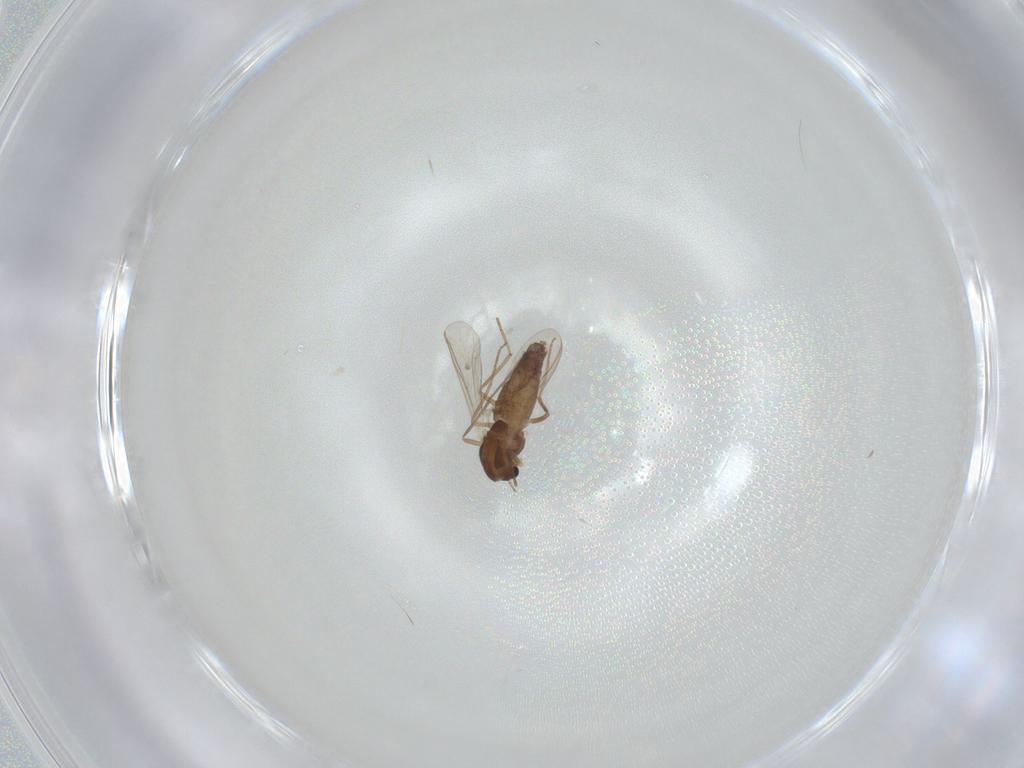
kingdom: Animalia
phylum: Arthropoda
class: Insecta
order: Diptera
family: Chironomidae
